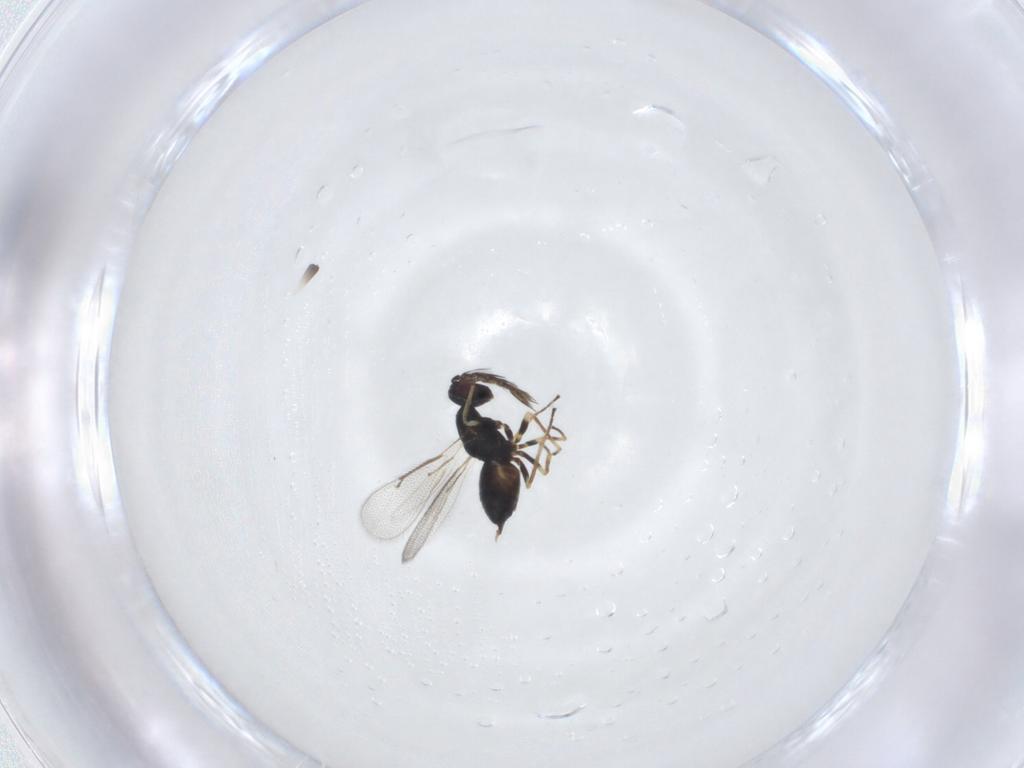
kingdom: Animalia
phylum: Arthropoda
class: Insecta
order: Hymenoptera
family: Eulophidae
